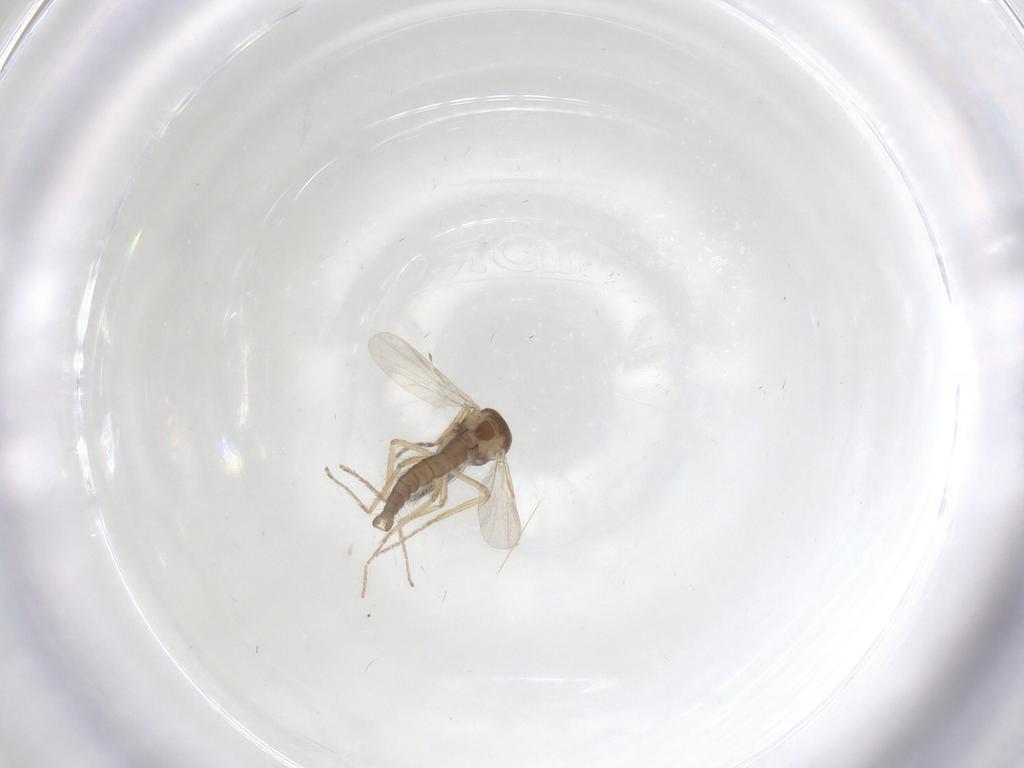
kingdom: Animalia
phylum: Arthropoda
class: Insecta
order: Diptera
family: Ceratopogonidae
